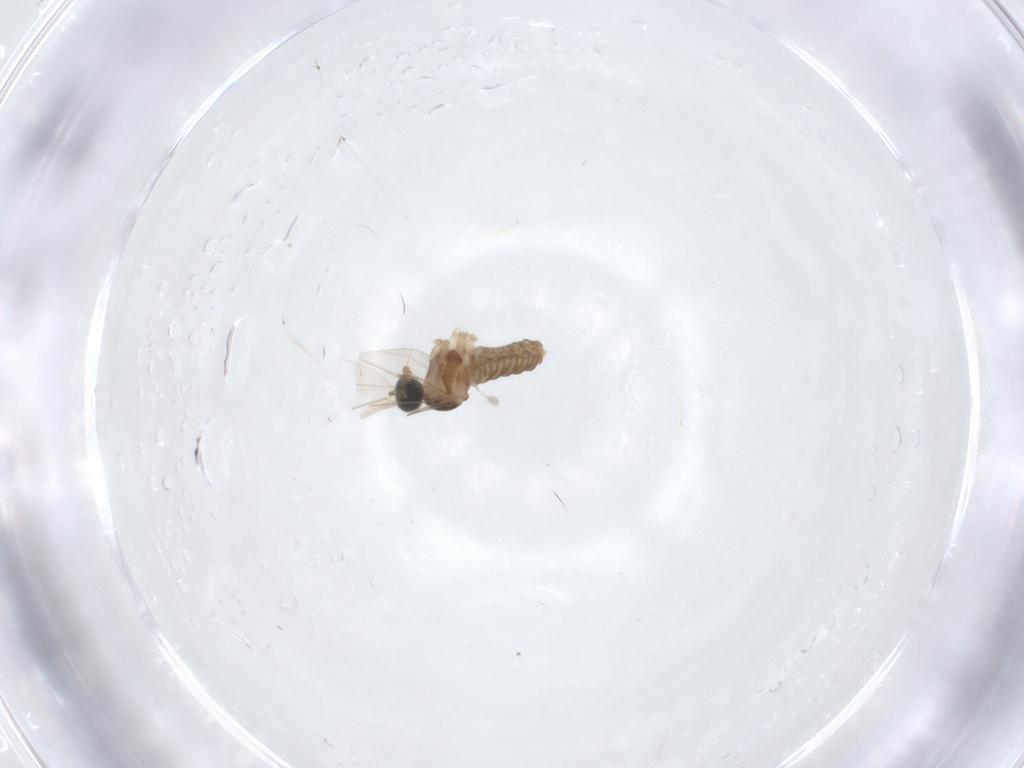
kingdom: Animalia
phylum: Arthropoda
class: Insecta
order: Diptera
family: Cecidomyiidae
